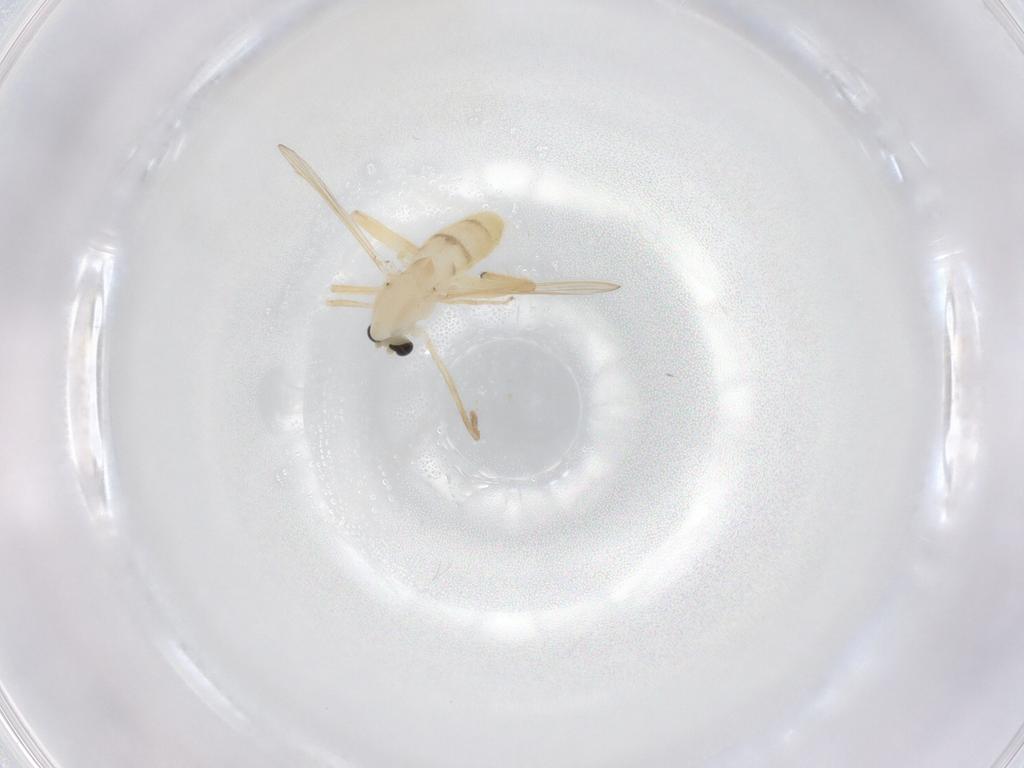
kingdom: Animalia
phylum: Arthropoda
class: Insecta
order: Diptera
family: Chironomidae
